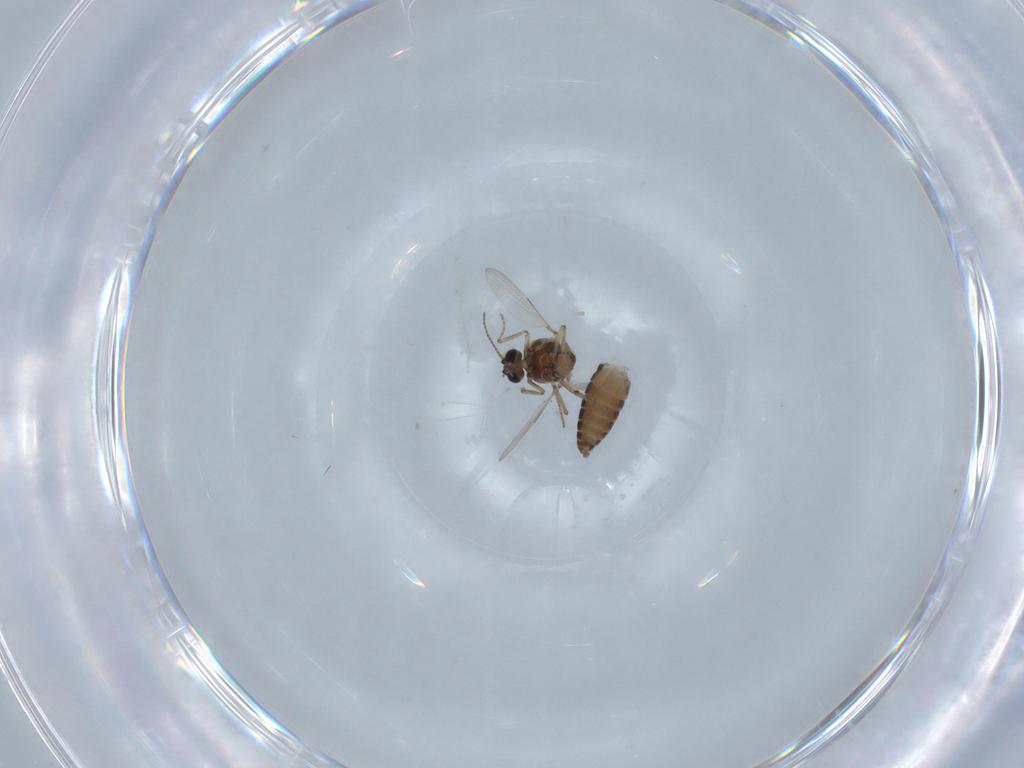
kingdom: Animalia
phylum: Arthropoda
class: Insecta
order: Diptera
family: Ceratopogonidae
